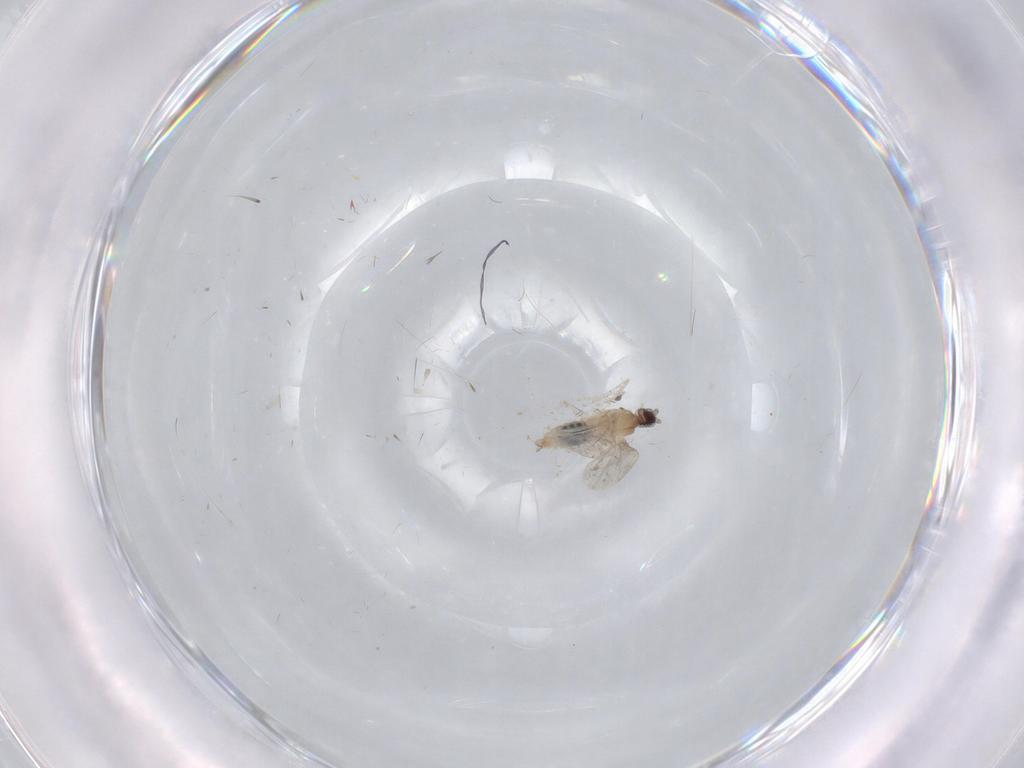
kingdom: Animalia
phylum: Arthropoda
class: Insecta
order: Diptera
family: Cecidomyiidae
